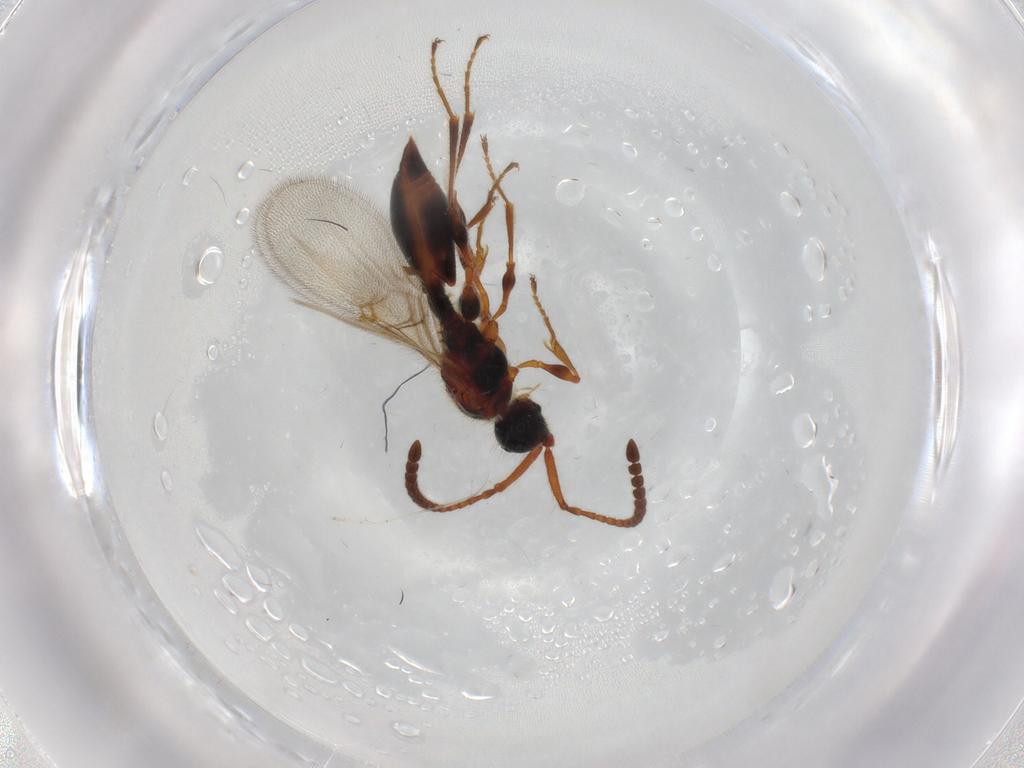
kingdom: Animalia
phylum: Arthropoda
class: Insecta
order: Hymenoptera
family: Diapriidae
